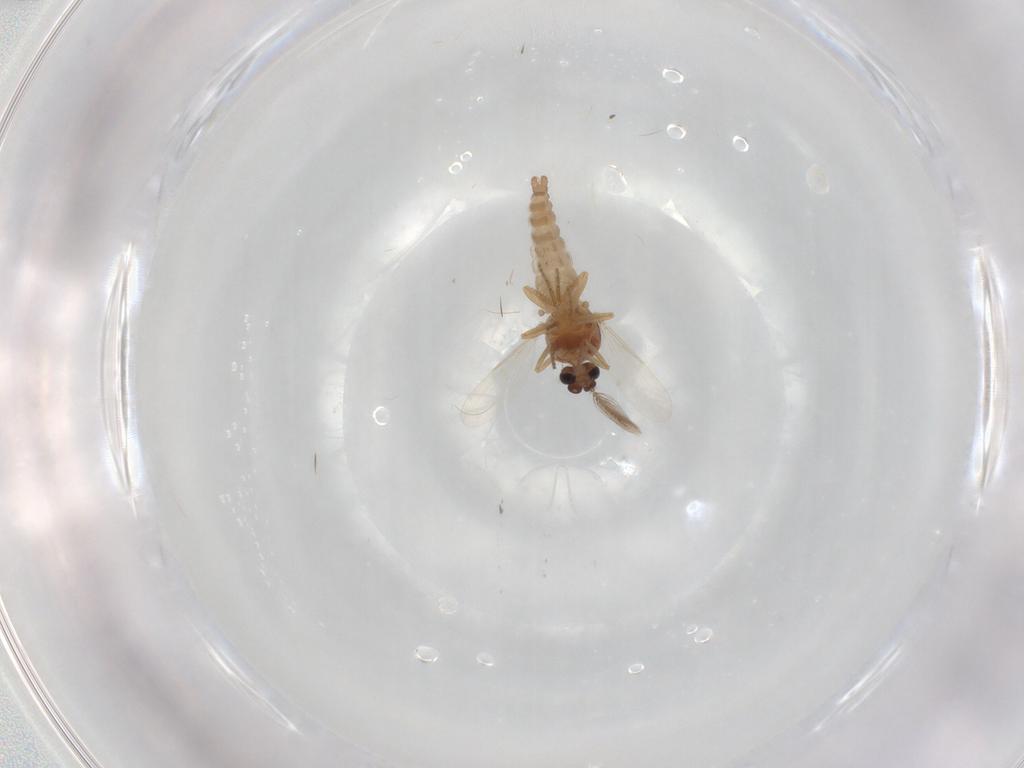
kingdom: Animalia
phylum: Arthropoda
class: Insecta
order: Diptera
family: Ceratopogonidae
